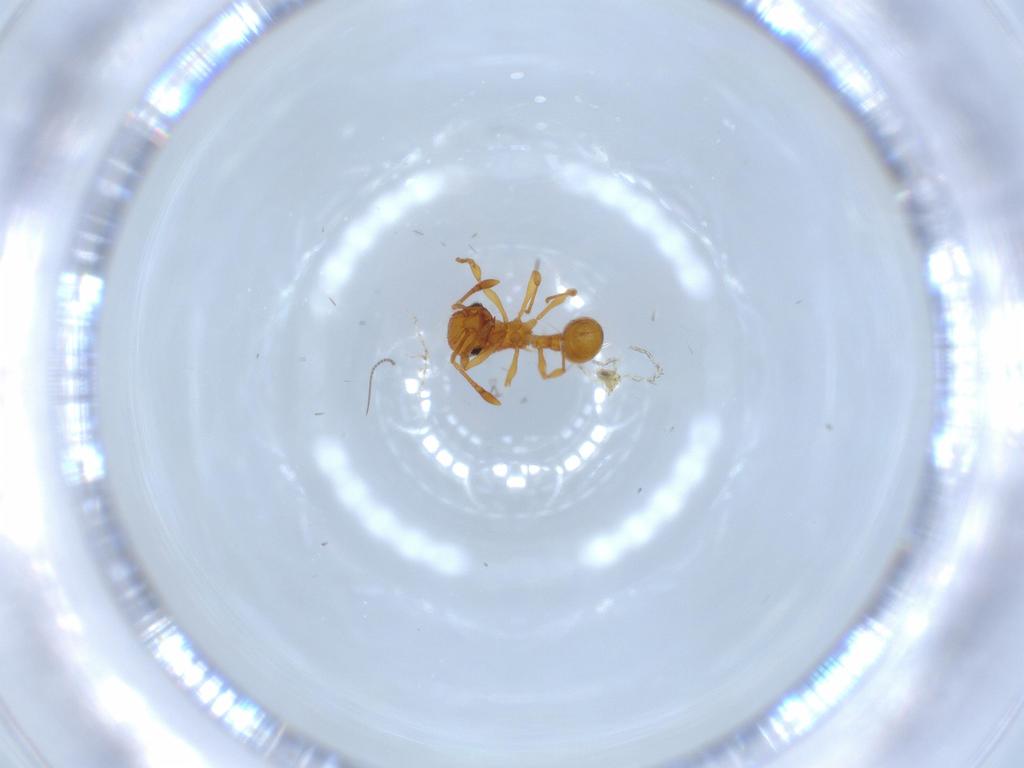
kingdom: Animalia
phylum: Arthropoda
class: Insecta
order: Hymenoptera
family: Formicidae
